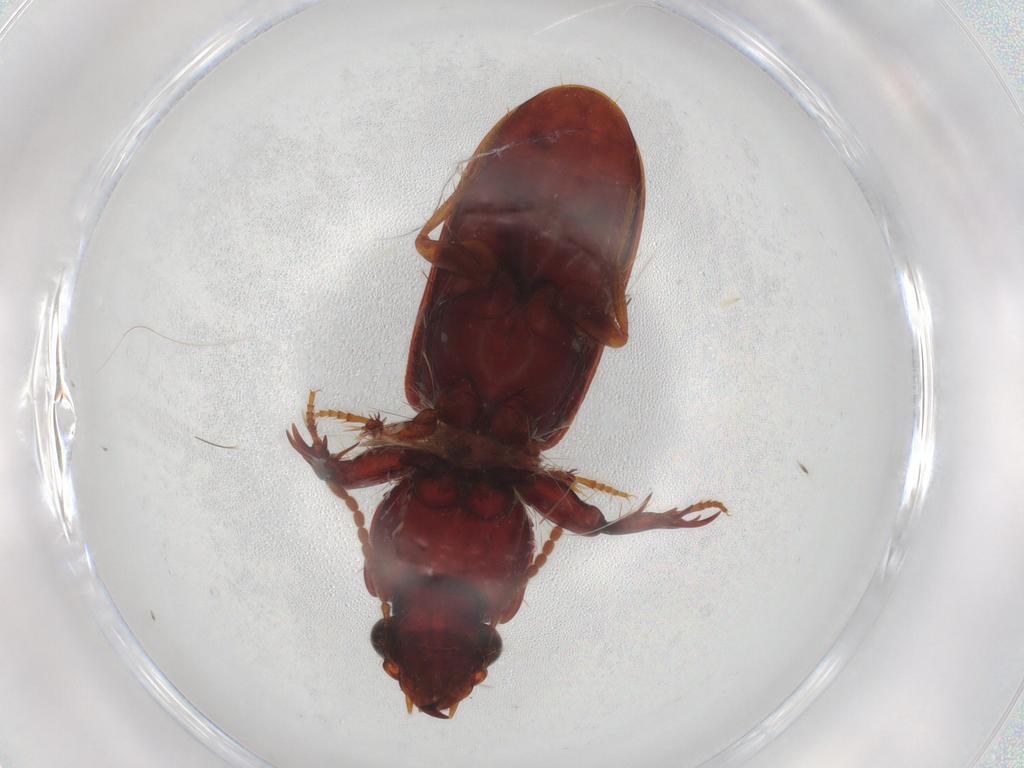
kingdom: Animalia
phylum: Arthropoda
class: Insecta
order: Coleoptera
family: Carabidae
